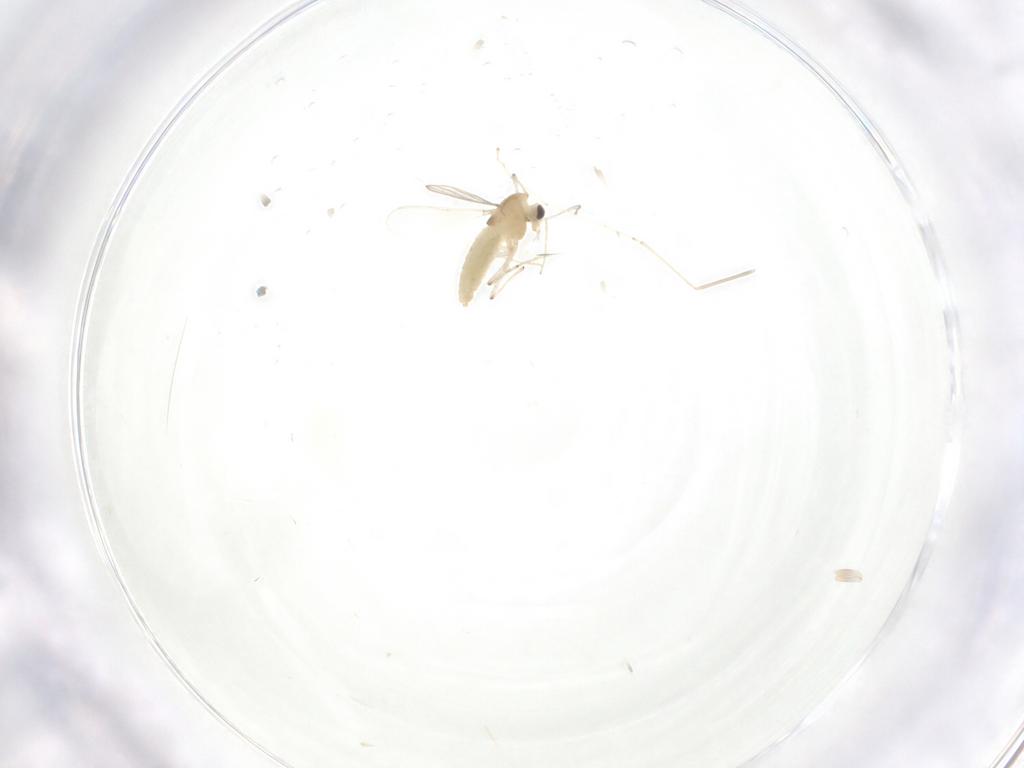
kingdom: Animalia
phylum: Arthropoda
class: Insecta
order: Diptera
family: Chironomidae
